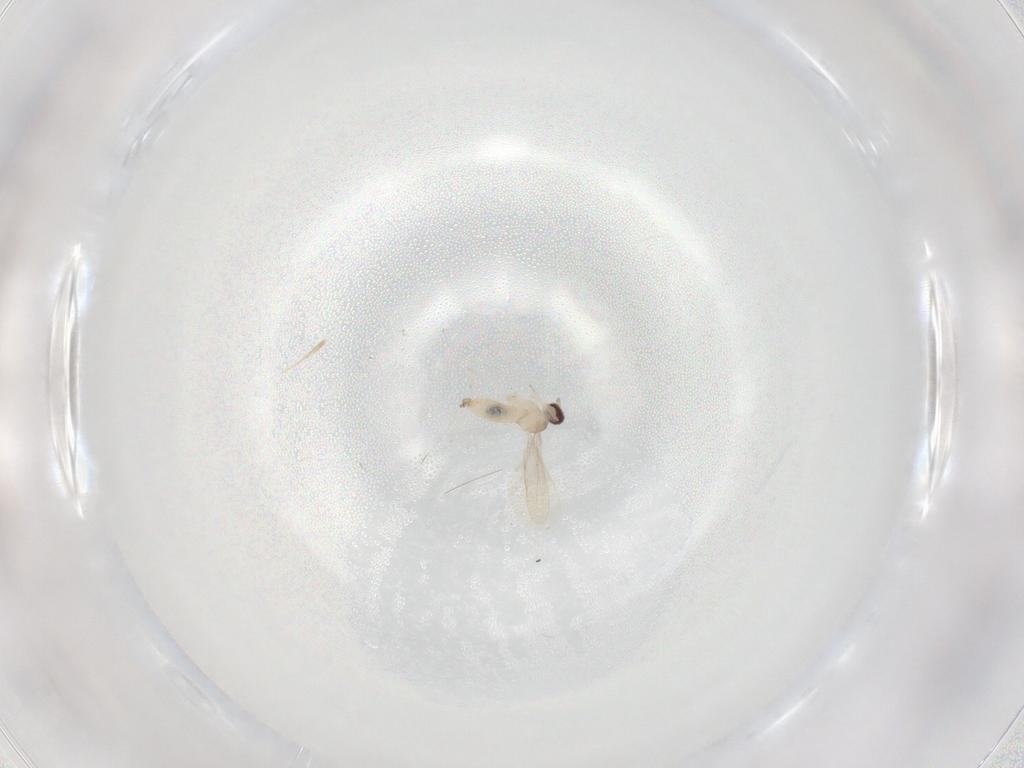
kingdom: Animalia
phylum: Arthropoda
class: Insecta
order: Diptera
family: Cecidomyiidae
